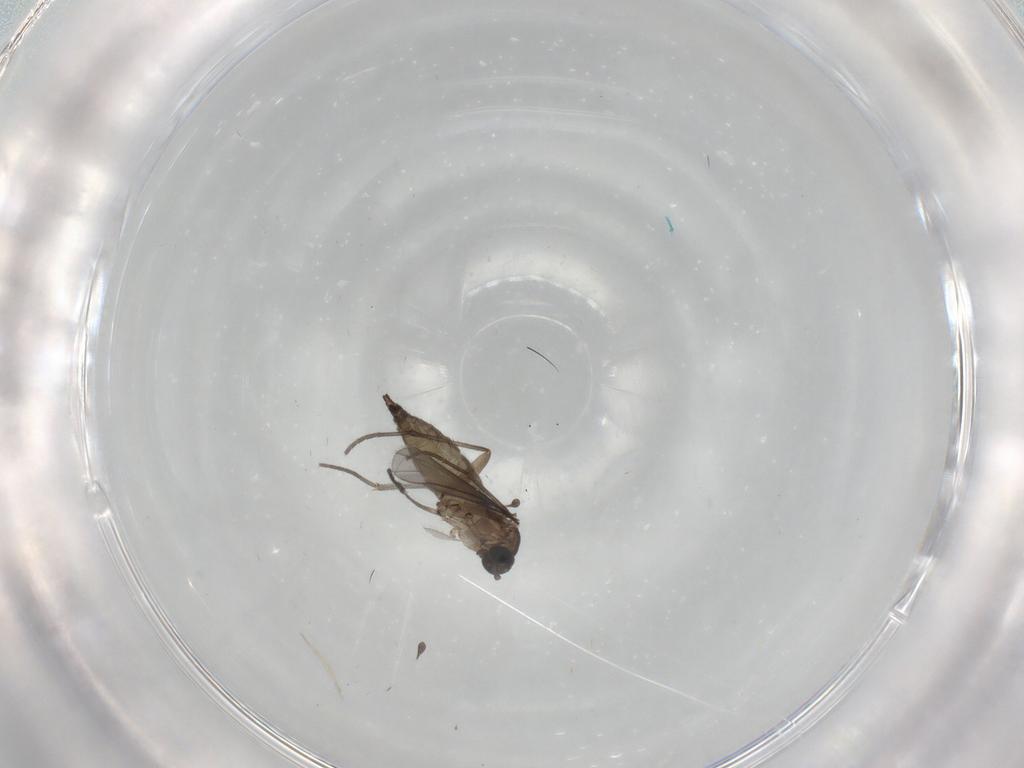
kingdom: Animalia
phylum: Arthropoda
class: Insecta
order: Diptera
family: Sciaridae
